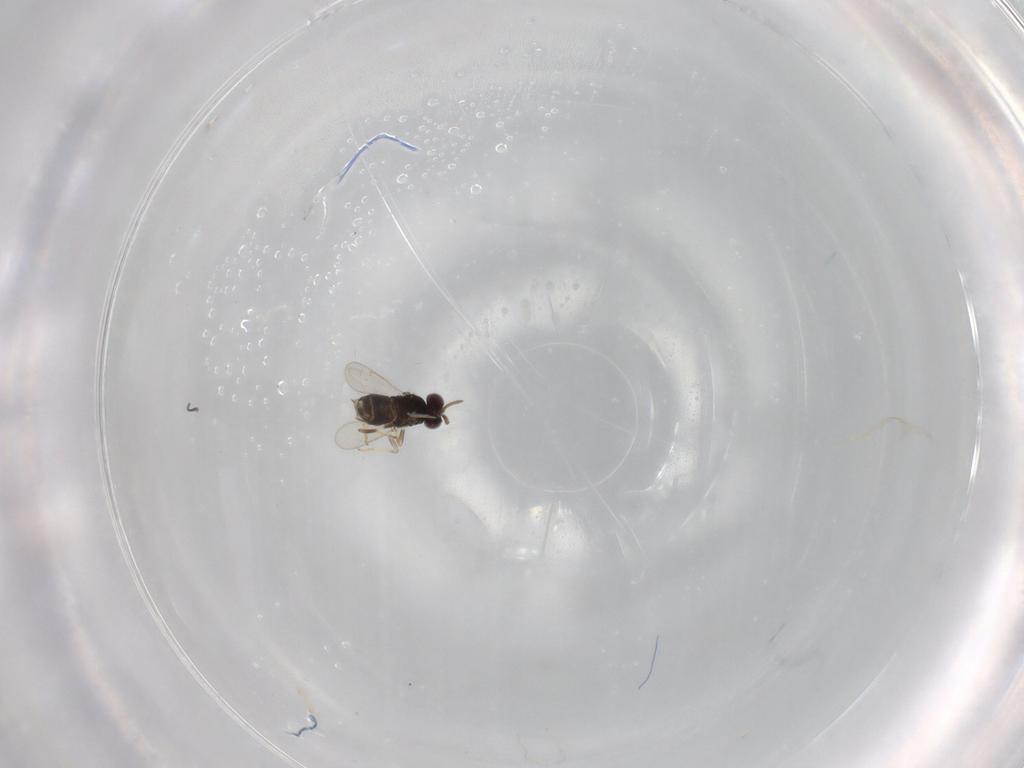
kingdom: Animalia
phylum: Arthropoda
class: Insecta
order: Hymenoptera
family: Aphelinidae
